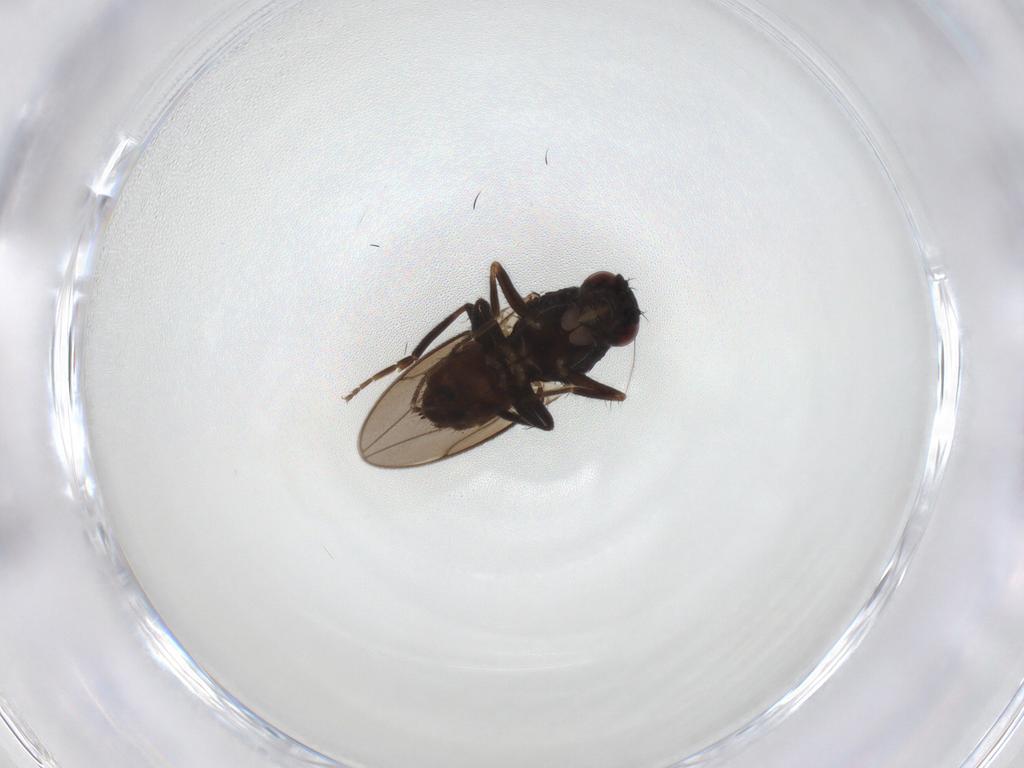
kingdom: Animalia
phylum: Arthropoda
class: Insecta
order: Diptera
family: Sphaeroceridae
